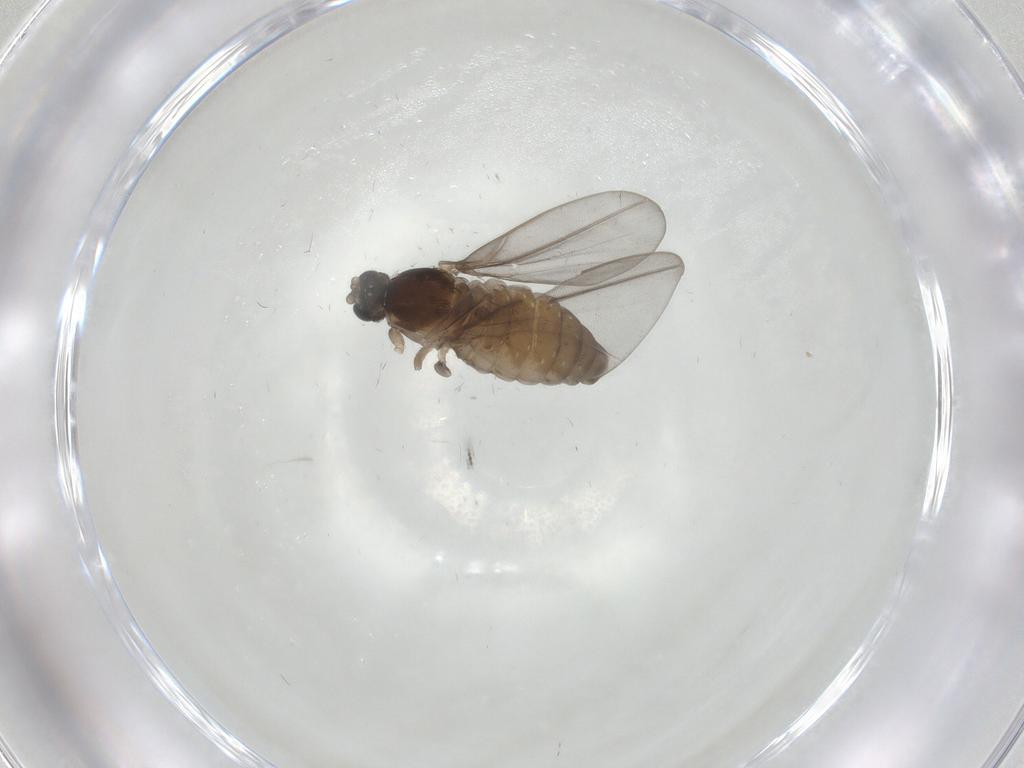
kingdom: Animalia
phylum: Arthropoda
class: Insecta
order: Diptera
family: Cecidomyiidae
